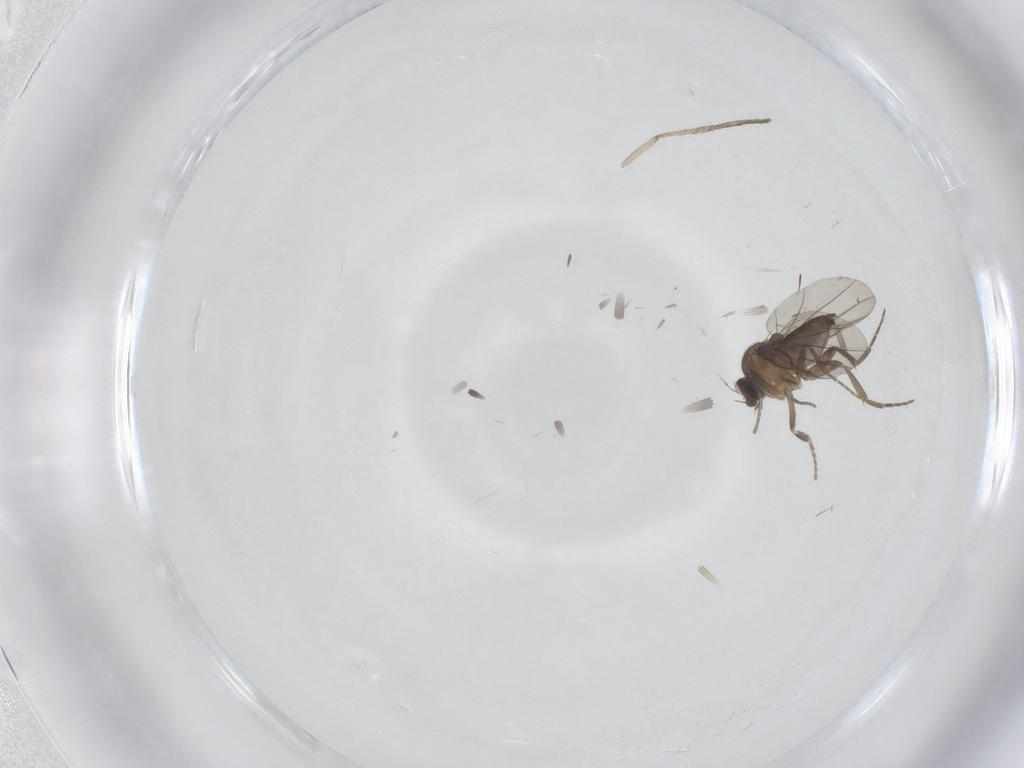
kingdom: Animalia
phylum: Arthropoda
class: Insecta
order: Diptera
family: Psychodidae
